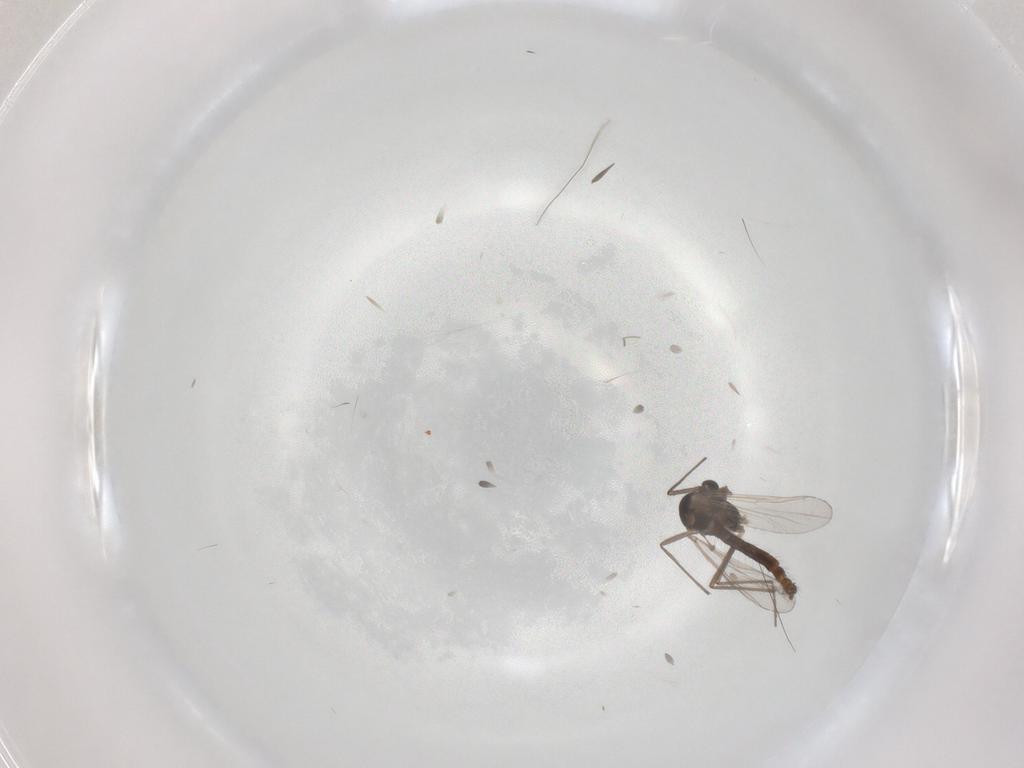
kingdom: Animalia
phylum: Arthropoda
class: Insecta
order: Diptera
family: Chironomidae
